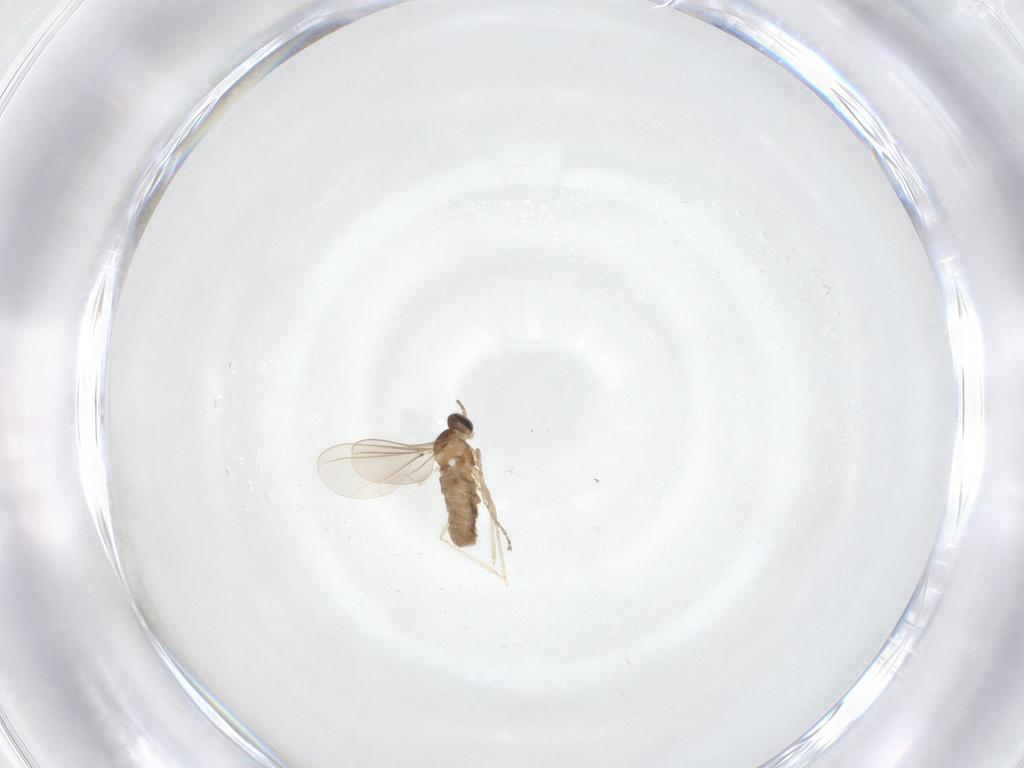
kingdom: Animalia
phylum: Arthropoda
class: Insecta
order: Diptera
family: Cecidomyiidae
